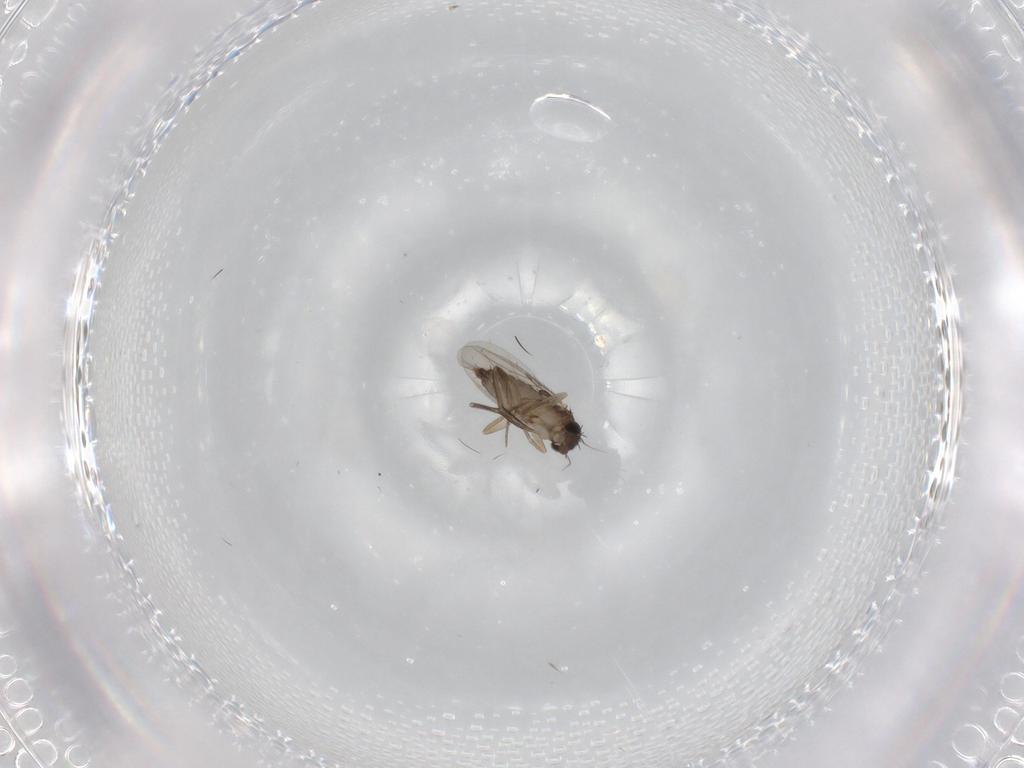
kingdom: Animalia
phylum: Arthropoda
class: Insecta
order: Diptera
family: Phoridae
